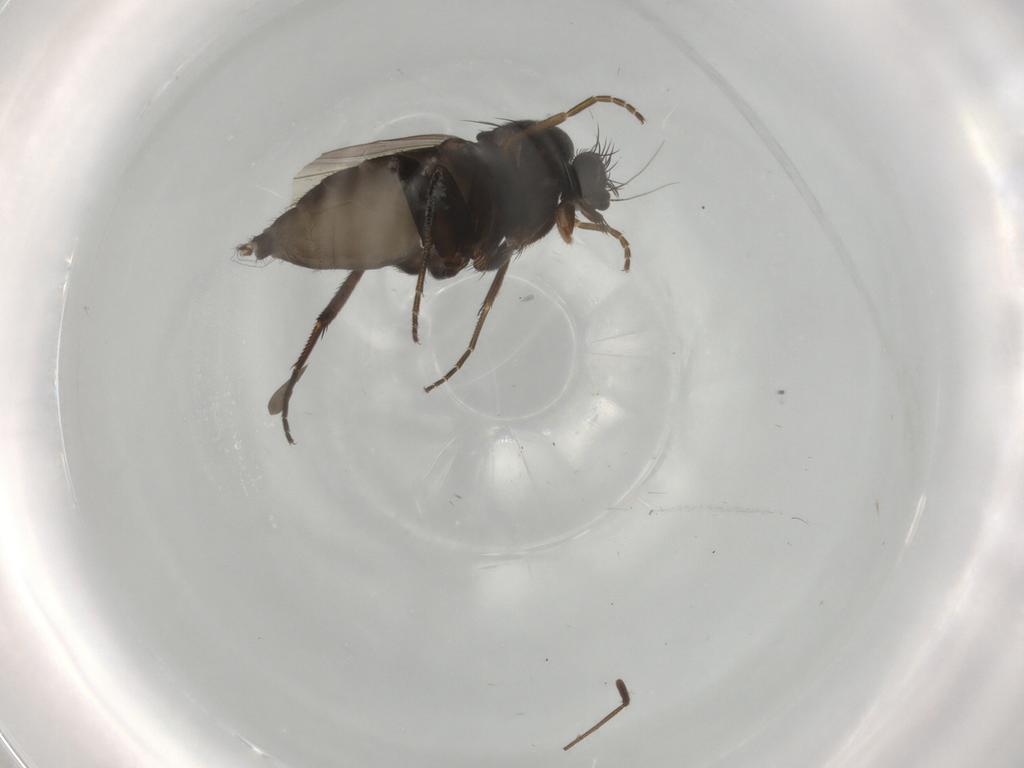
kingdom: Animalia
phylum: Arthropoda
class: Insecta
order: Diptera
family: Phoridae
